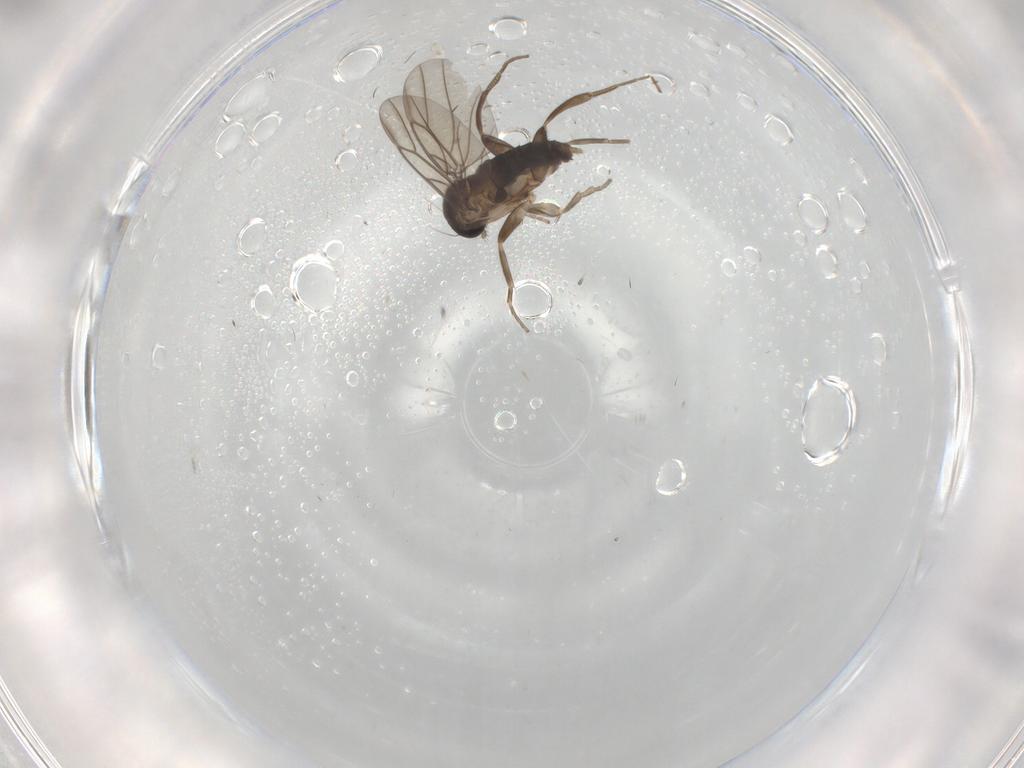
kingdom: Animalia
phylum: Arthropoda
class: Insecta
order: Diptera
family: Phoridae
